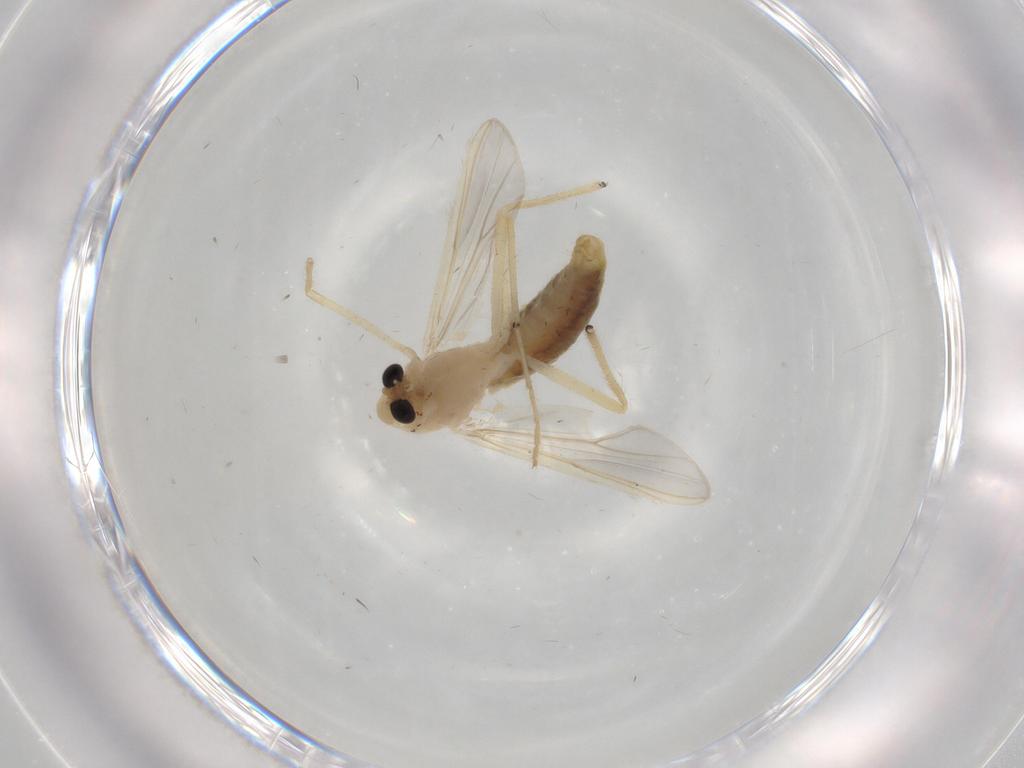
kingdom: Animalia
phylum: Arthropoda
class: Insecta
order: Diptera
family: Chironomidae
